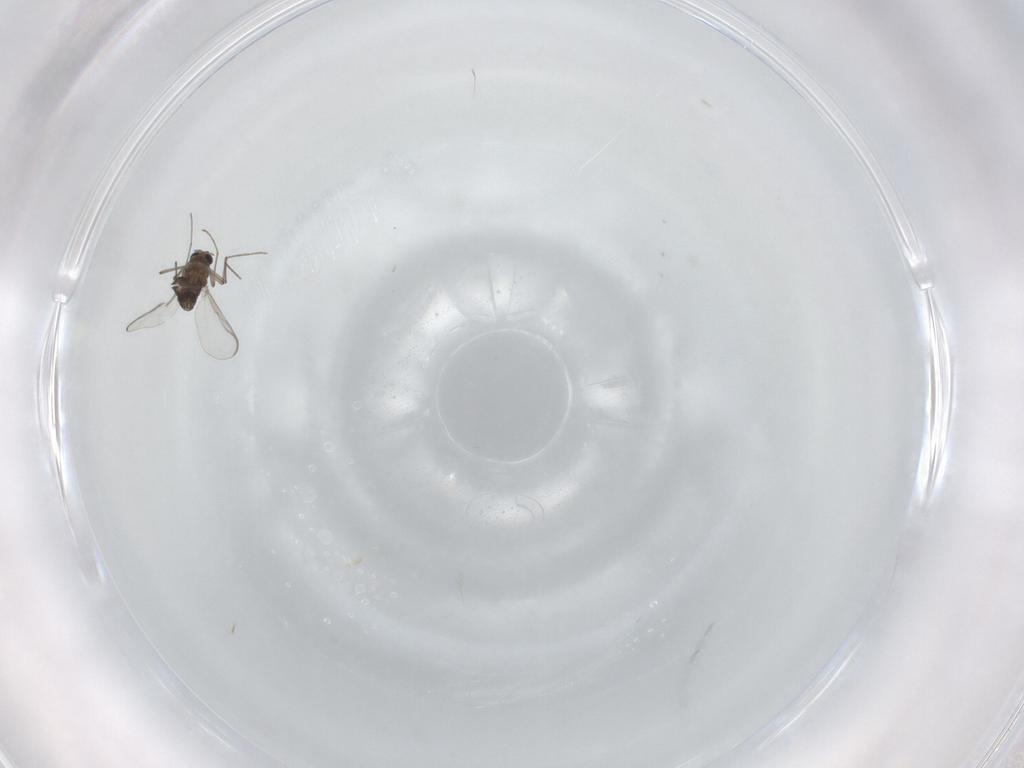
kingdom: Animalia
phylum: Arthropoda
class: Insecta
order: Diptera
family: Chironomidae
